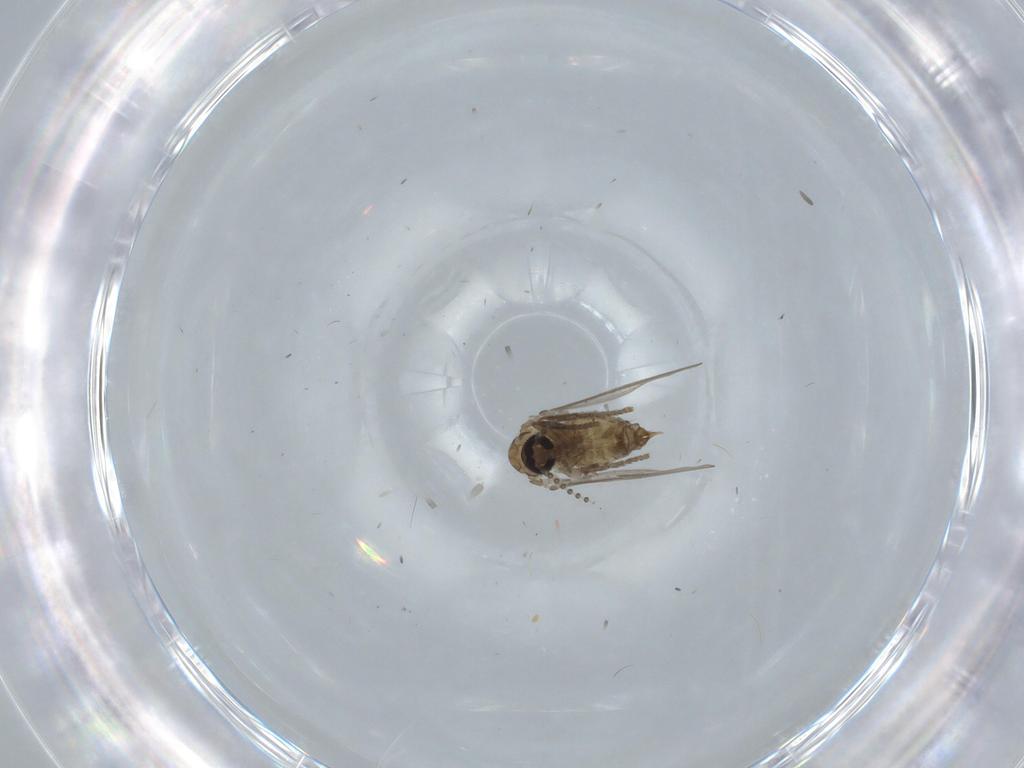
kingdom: Animalia
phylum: Arthropoda
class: Insecta
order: Diptera
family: Psychodidae
